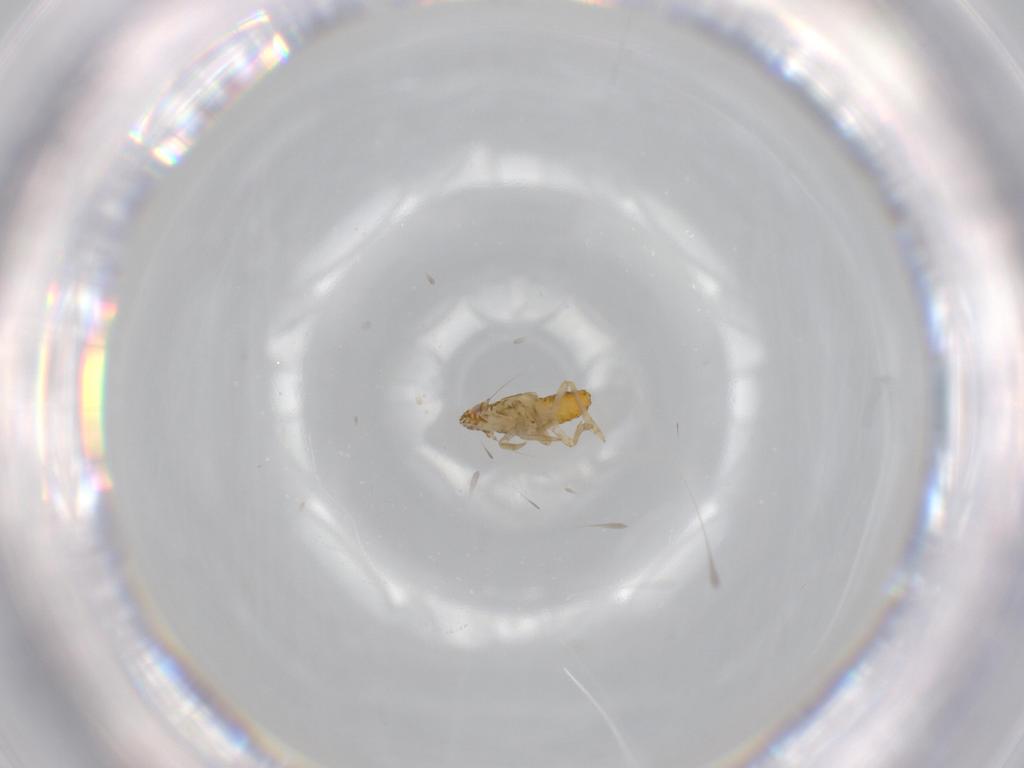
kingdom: Animalia
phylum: Arthropoda
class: Insecta
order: Hemiptera
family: Delphacidae
